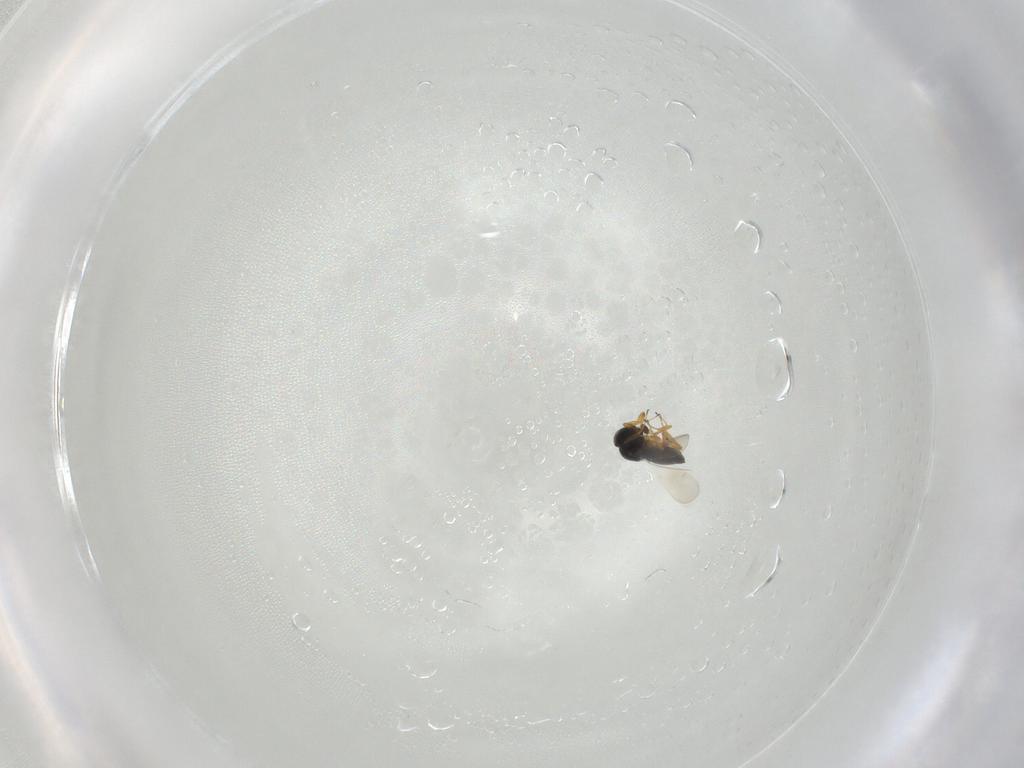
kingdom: Animalia
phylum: Arthropoda
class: Insecta
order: Hymenoptera
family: Platygastridae
